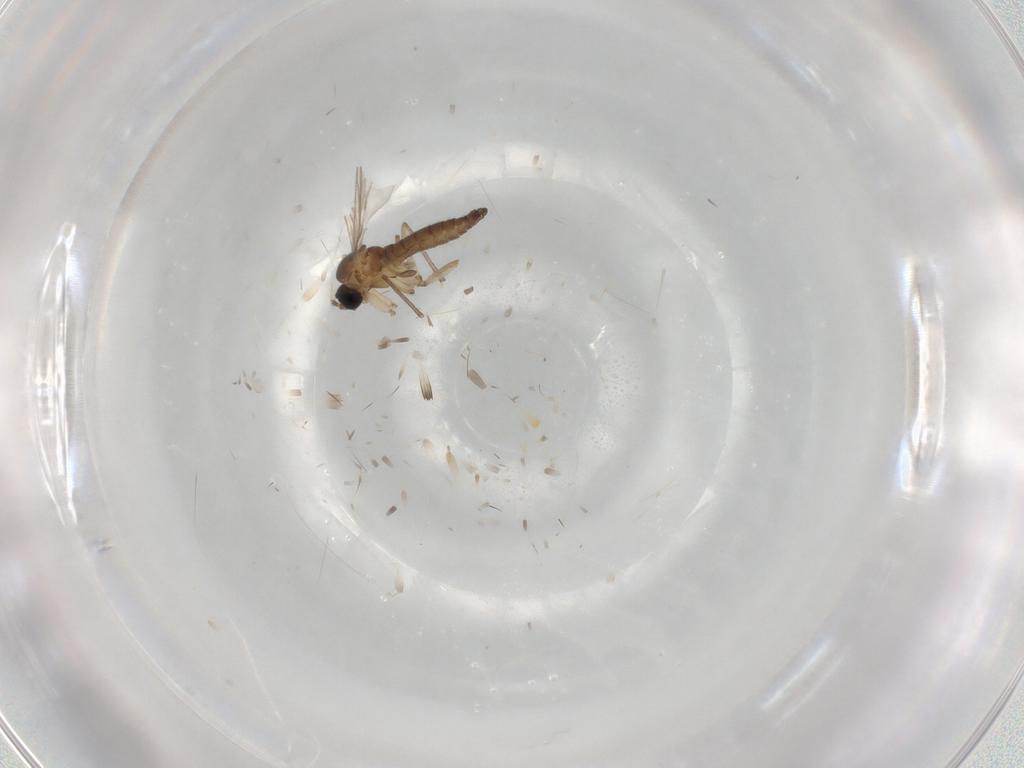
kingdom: Animalia
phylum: Arthropoda
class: Insecta
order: Diptera
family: Sciaridae
